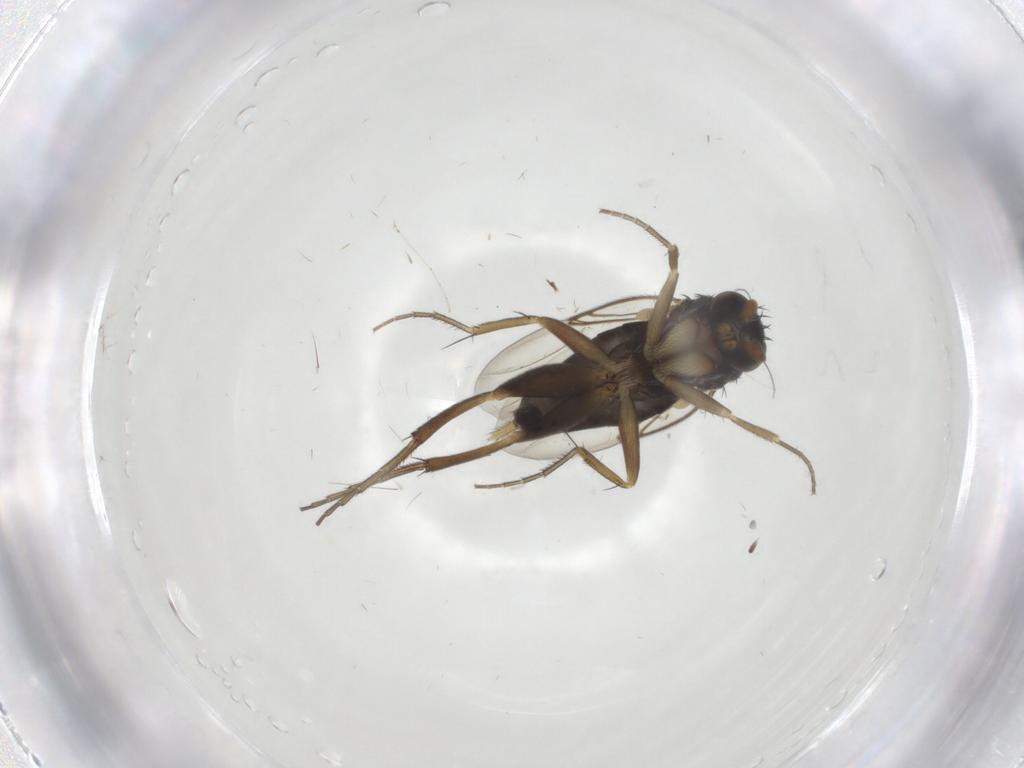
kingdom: Animalia
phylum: Arthropoda
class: Insecta
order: Diptera
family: Phoridae
